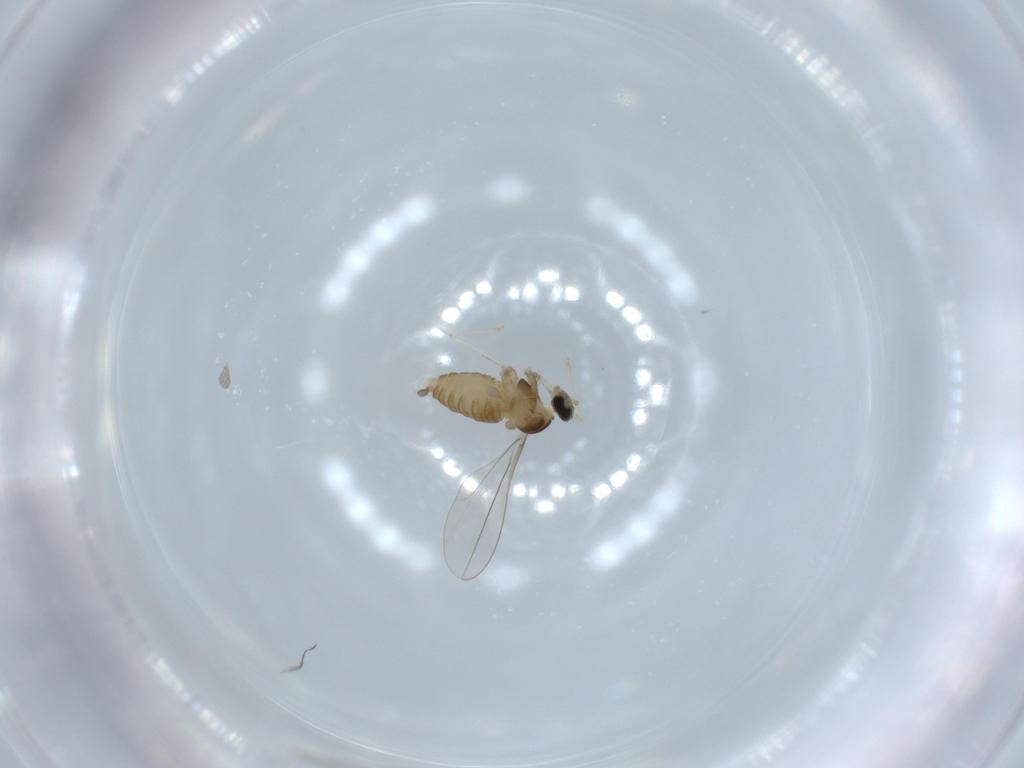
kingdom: Animalia
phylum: Arthropoda
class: Insecta
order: Diptera
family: Cecidomyiidae
